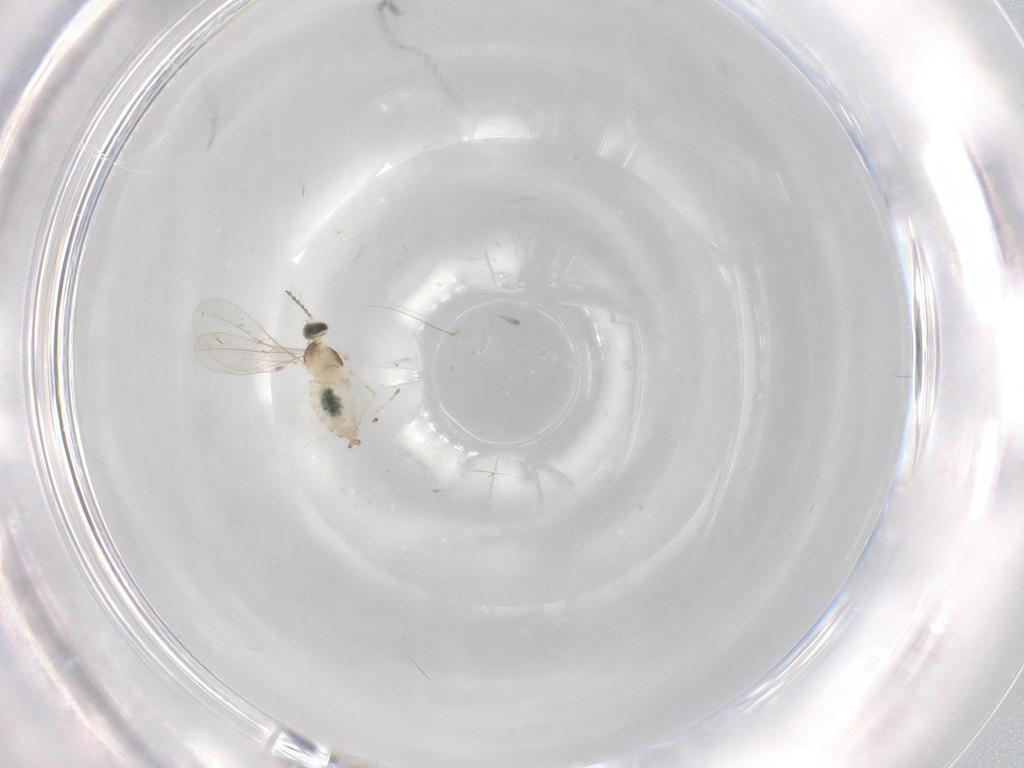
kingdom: Animalia
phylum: Arthropoda
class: Insecta
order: Diptera
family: Cecidomyiidae
